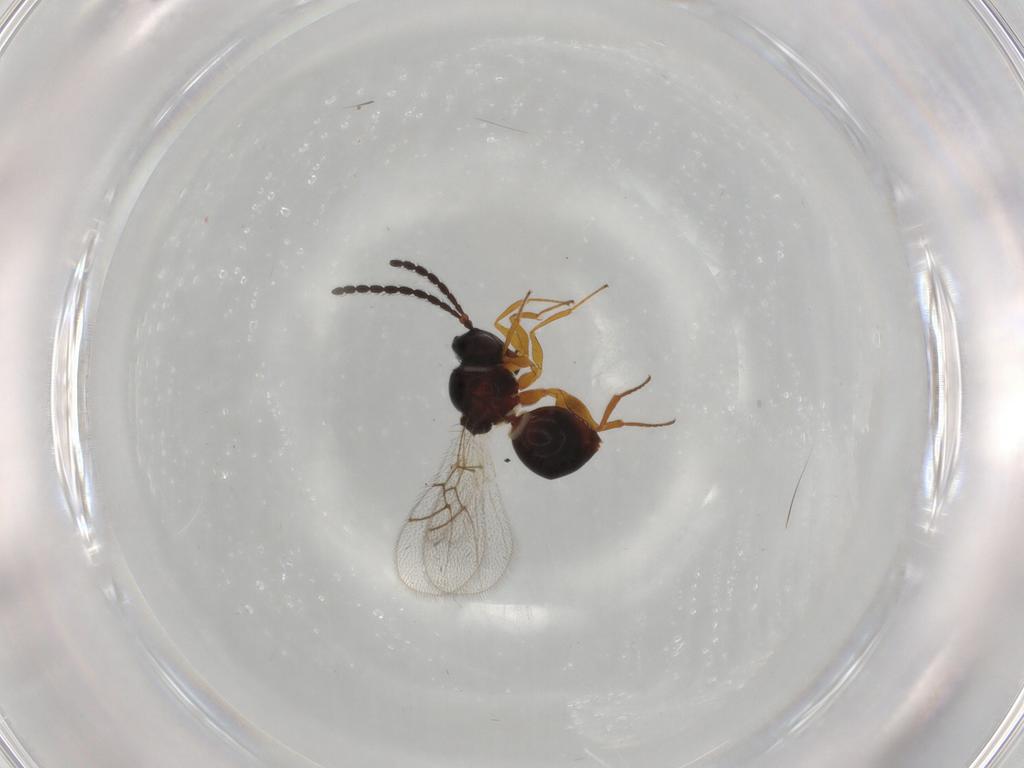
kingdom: Animalia
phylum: Arthropoda
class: Insecta
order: Hymenoptera
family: Figitidae
